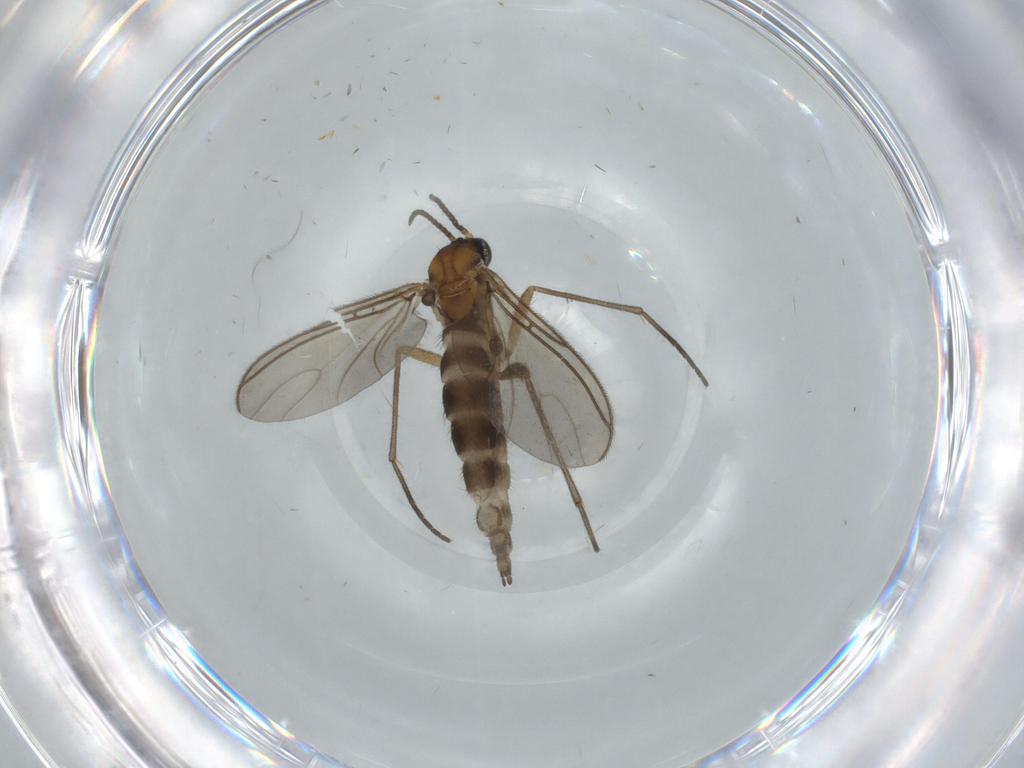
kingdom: Animalia
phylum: Arthropoda
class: Insecta
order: Diptera
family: Sciaridae
